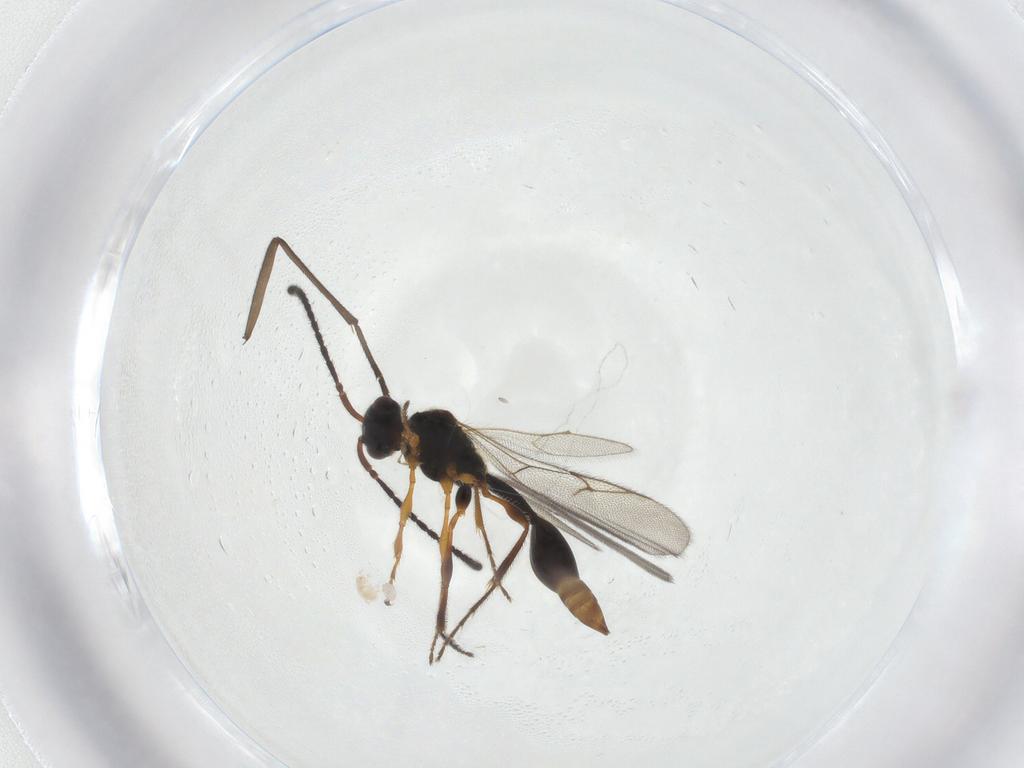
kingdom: Animalia
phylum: Arthropoda
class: Insecta
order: Hymenoptera
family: Diapriidae
